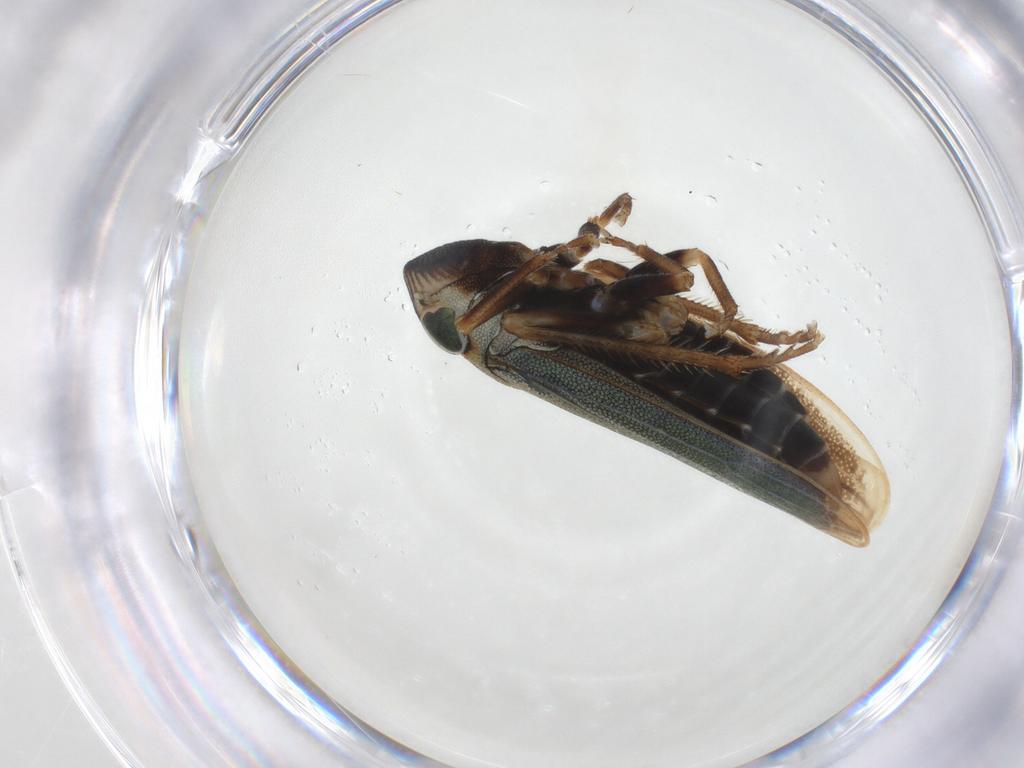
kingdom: Animalia
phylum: Arthropoda
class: Insecta
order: Hemiptera
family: Cicadellidae
